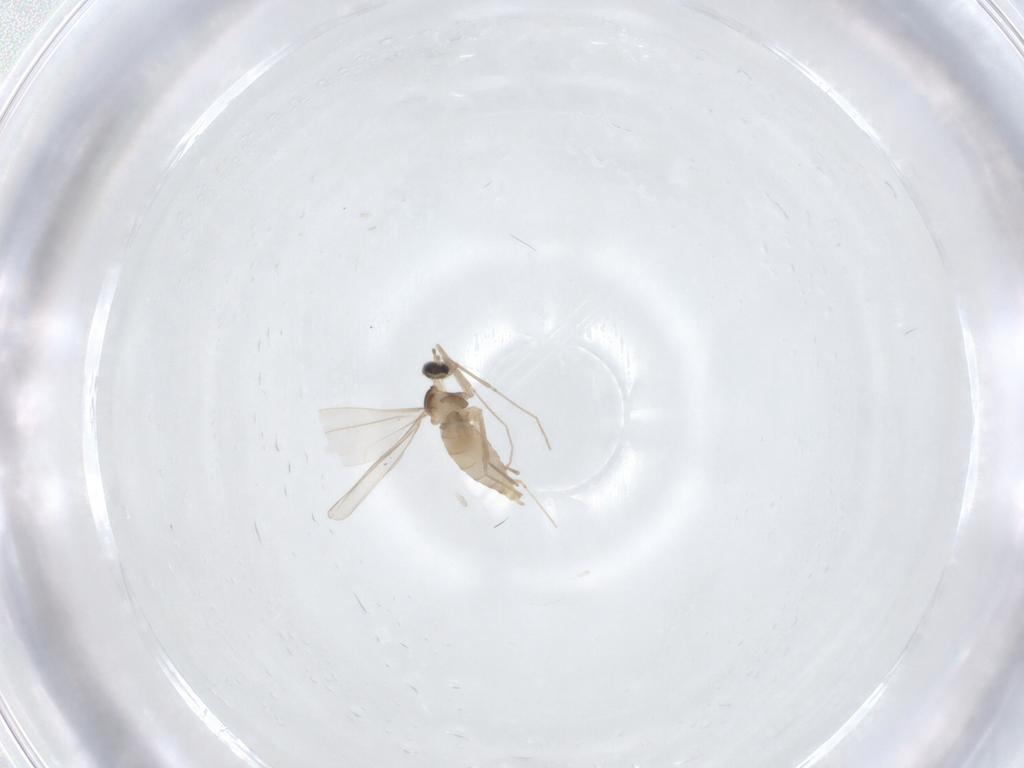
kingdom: Animalia
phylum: Arthropoda
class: Insecta
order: Diptera
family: Cecidomyiidae
